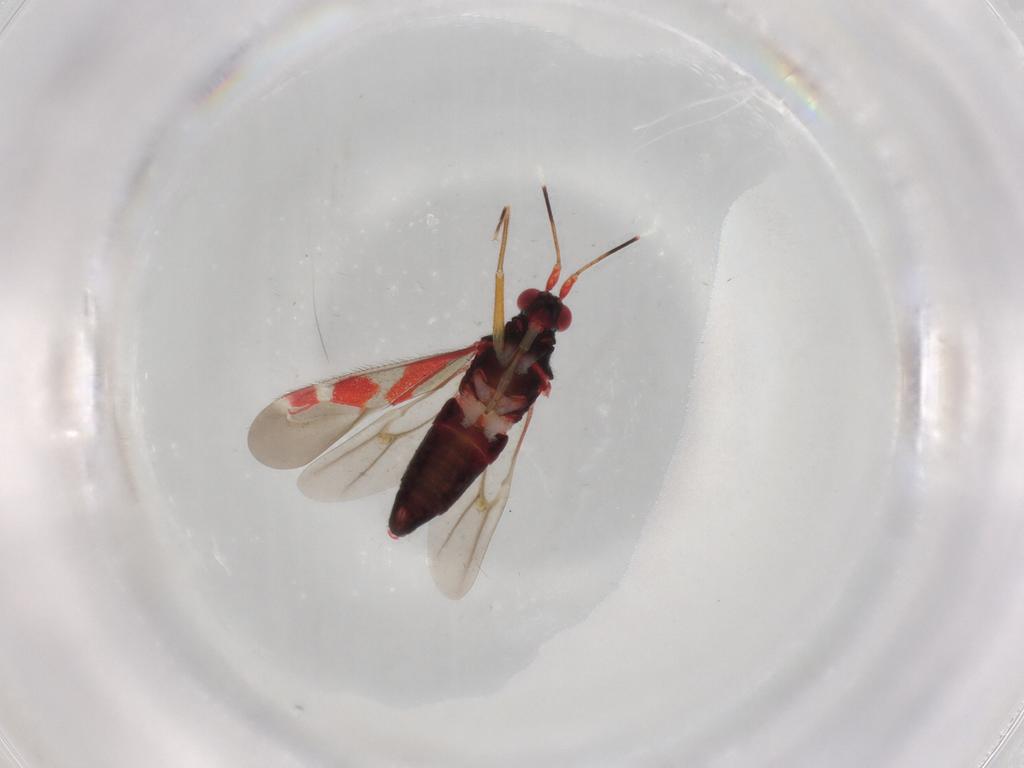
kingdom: Animalia
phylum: Arthropoda
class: Insecta
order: Hemiptera
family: Miridae
